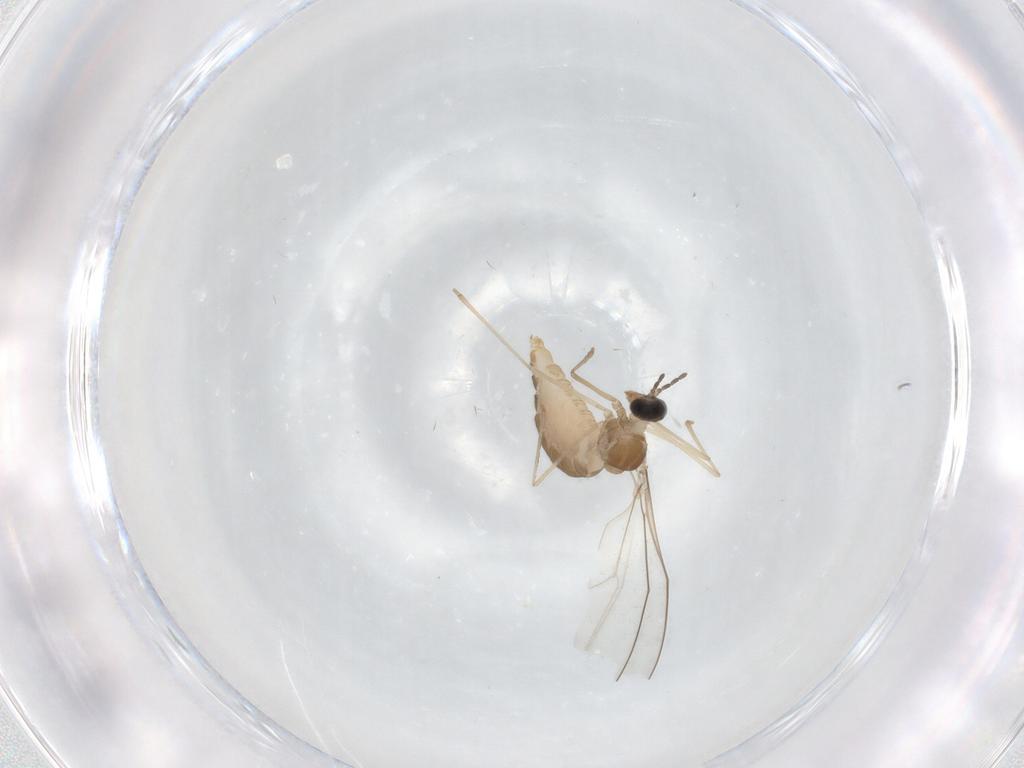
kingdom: Animalia
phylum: Arthropoda
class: Insecta
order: Diptera
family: Cecidomyiidae
